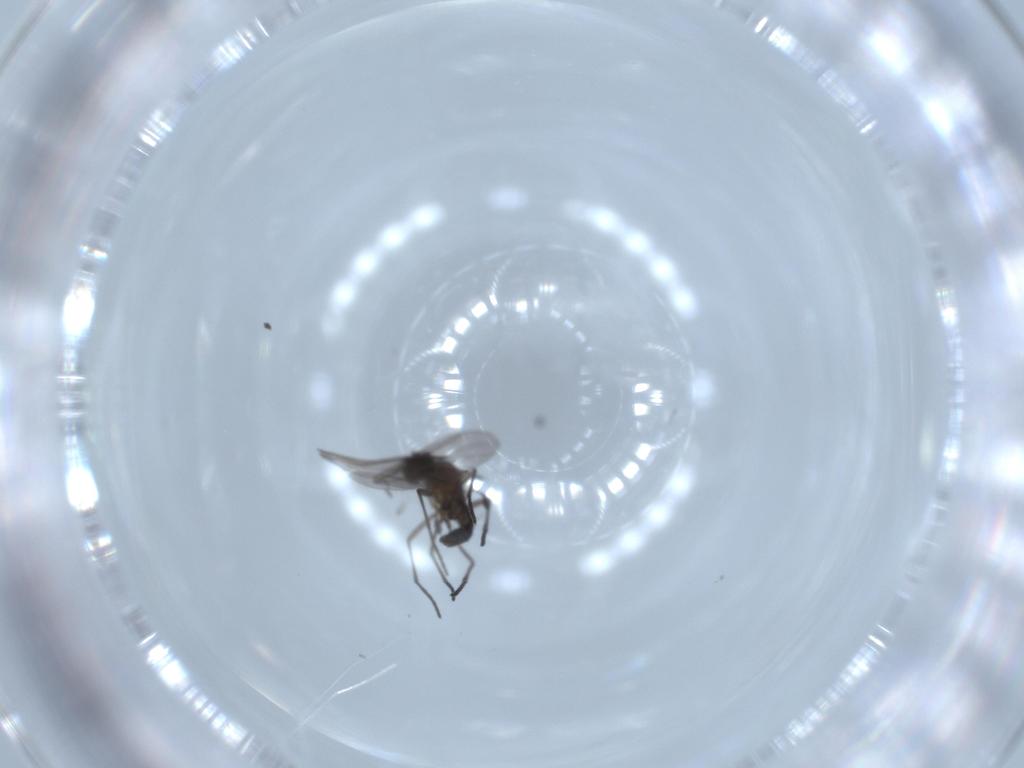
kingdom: Animalia
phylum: Arthropoda
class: Insecta
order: Diptera
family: Sciaridae
